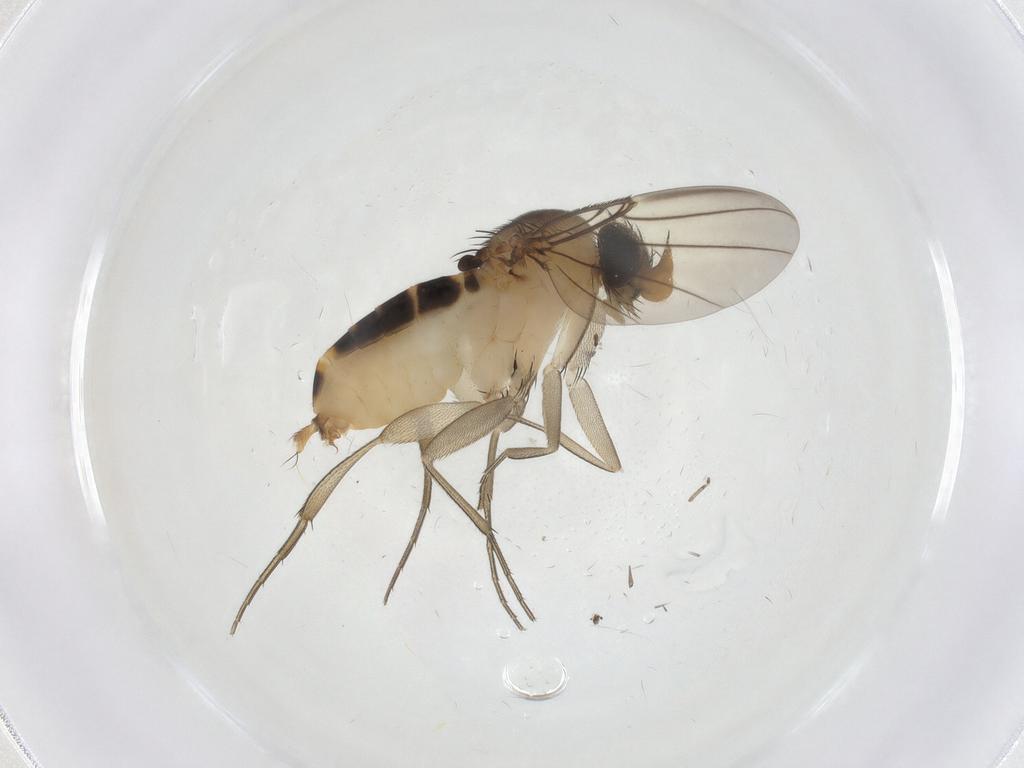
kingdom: Animalia
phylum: Arthropoda
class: Insecta
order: Diptera
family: Phoridae
